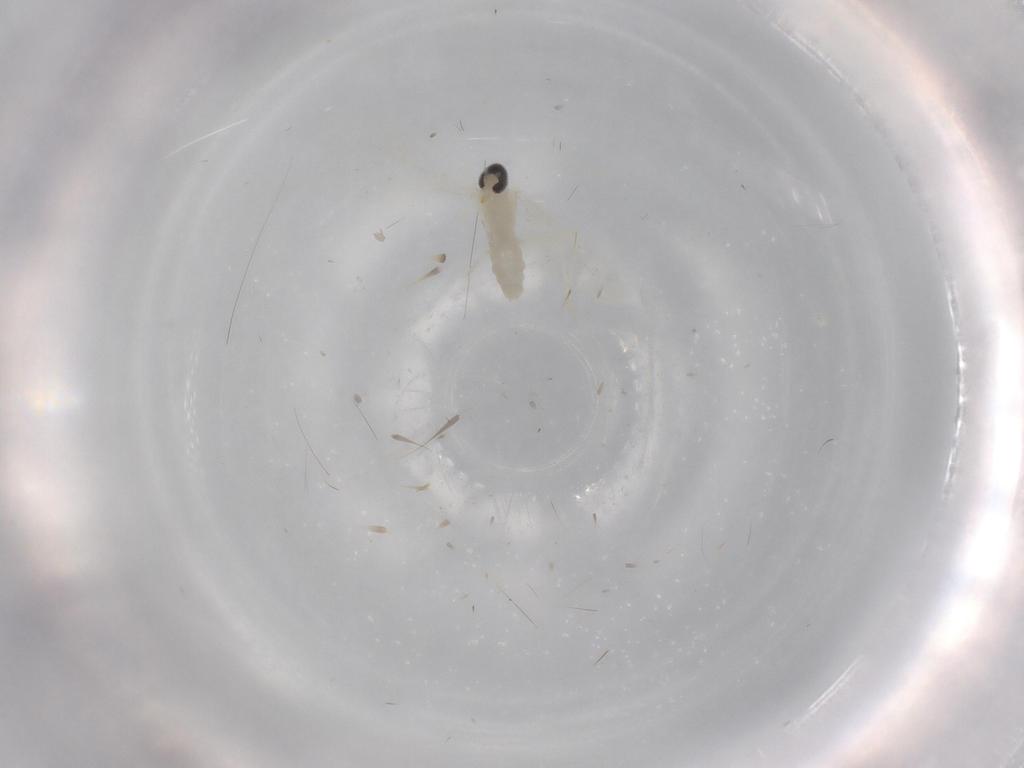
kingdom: Animalia
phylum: Arthropoda
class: Insecta
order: Diptera
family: Cecidomyiidae
